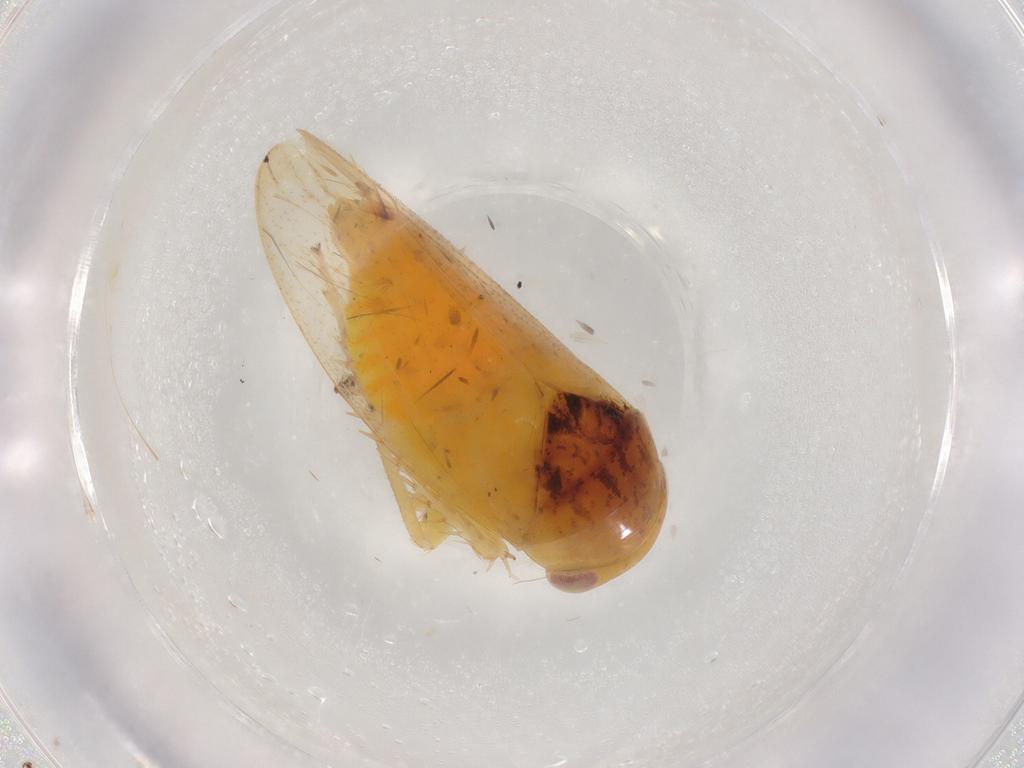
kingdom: Animalia
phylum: Arthropoda
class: Insecta
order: Hemiptera
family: Cicadellidae
